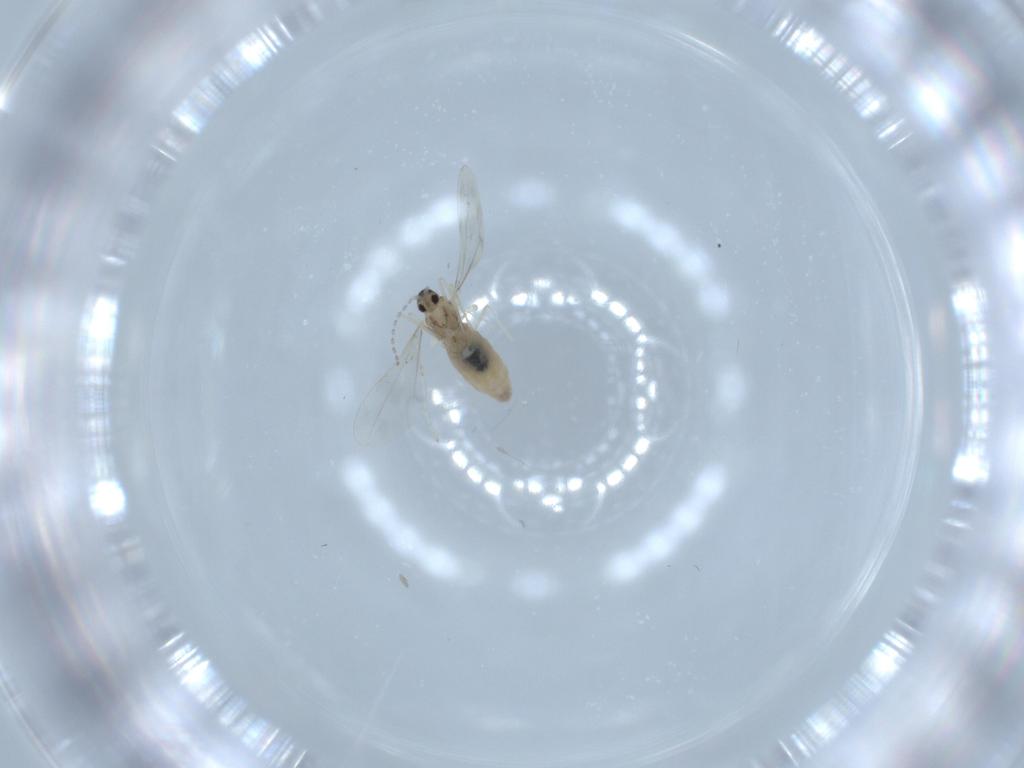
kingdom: Animalia
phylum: Arthropoda
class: Insecta
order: Diptera
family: Cecidomyiidae
